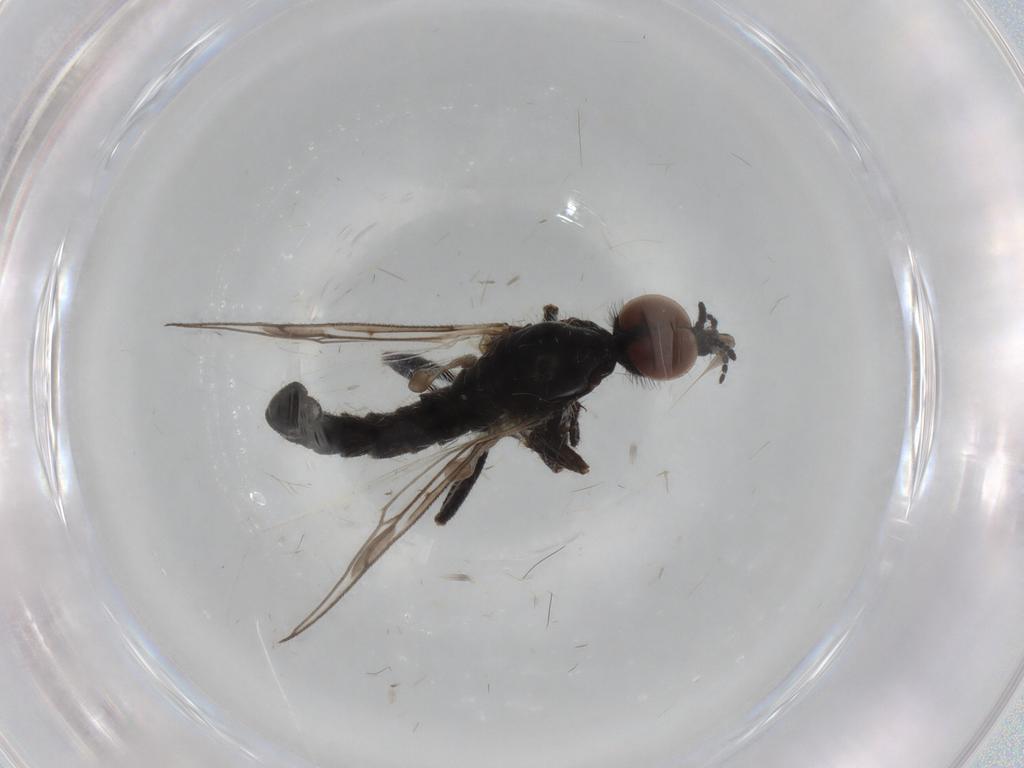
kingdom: Animalia
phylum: Arthropoda
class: Insecta
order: Diptera
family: Bibionidae
